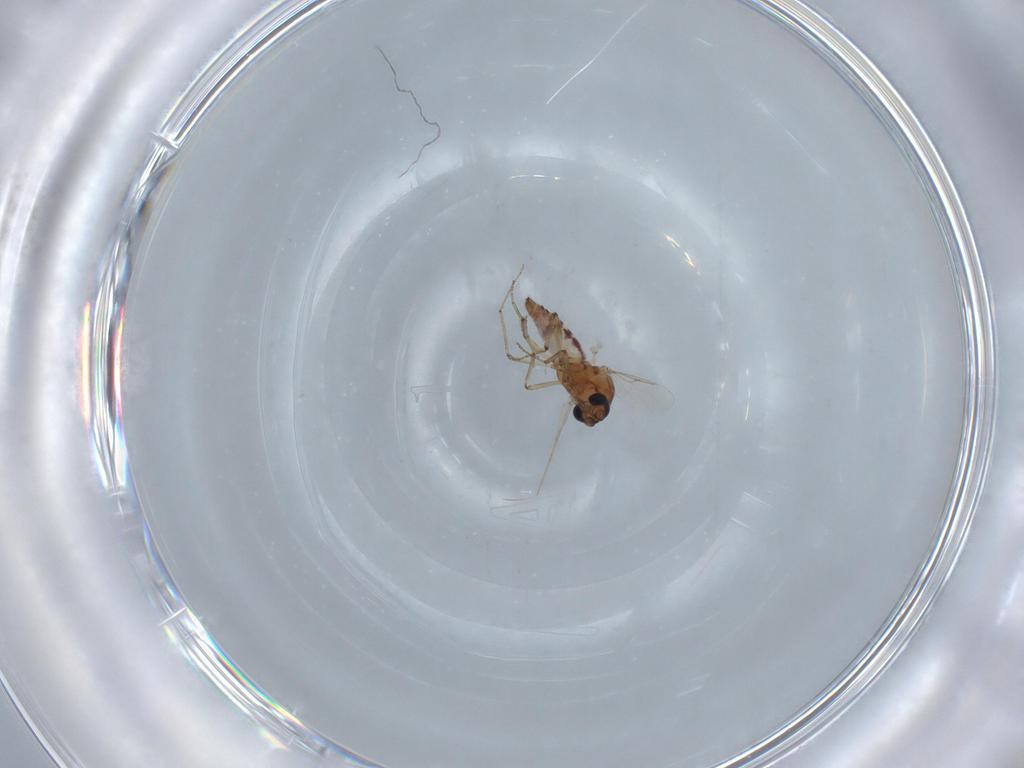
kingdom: Animalia
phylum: Arthropoda
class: Insecta
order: Diptera
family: Ceratopogonidae
